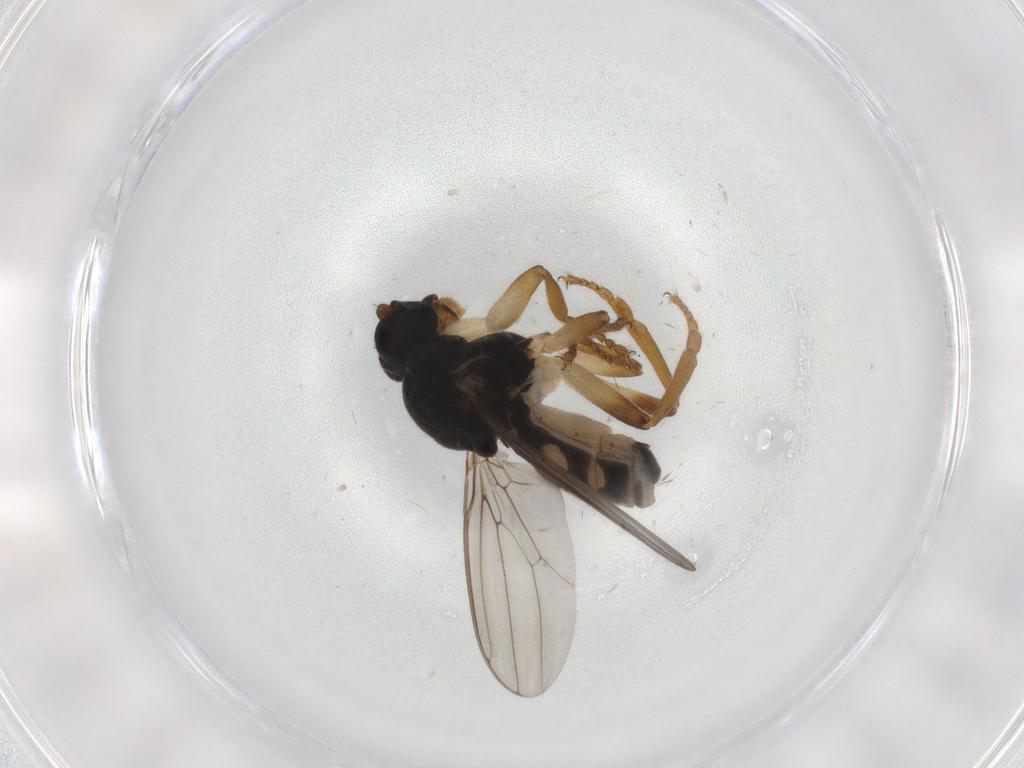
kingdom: Animalia
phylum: Arthropoda
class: Insecta
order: Diptera
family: Sphaeroceridae
